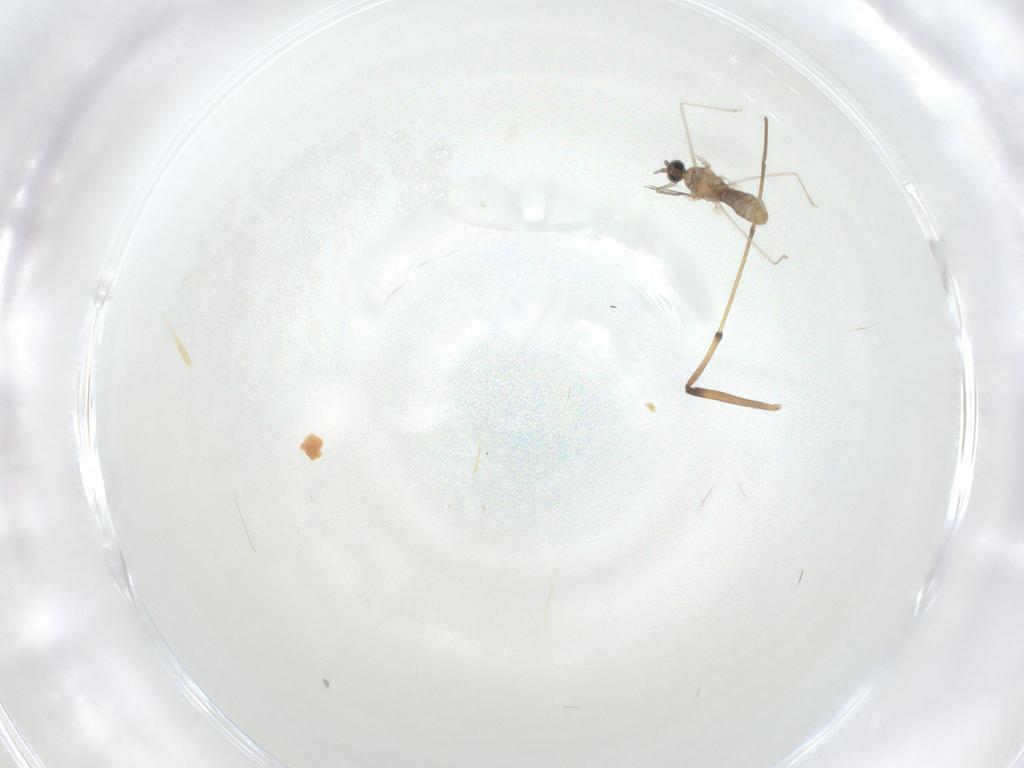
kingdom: Animalia
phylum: Arthropoda
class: Insecta
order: Diptera
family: Chironomidae
